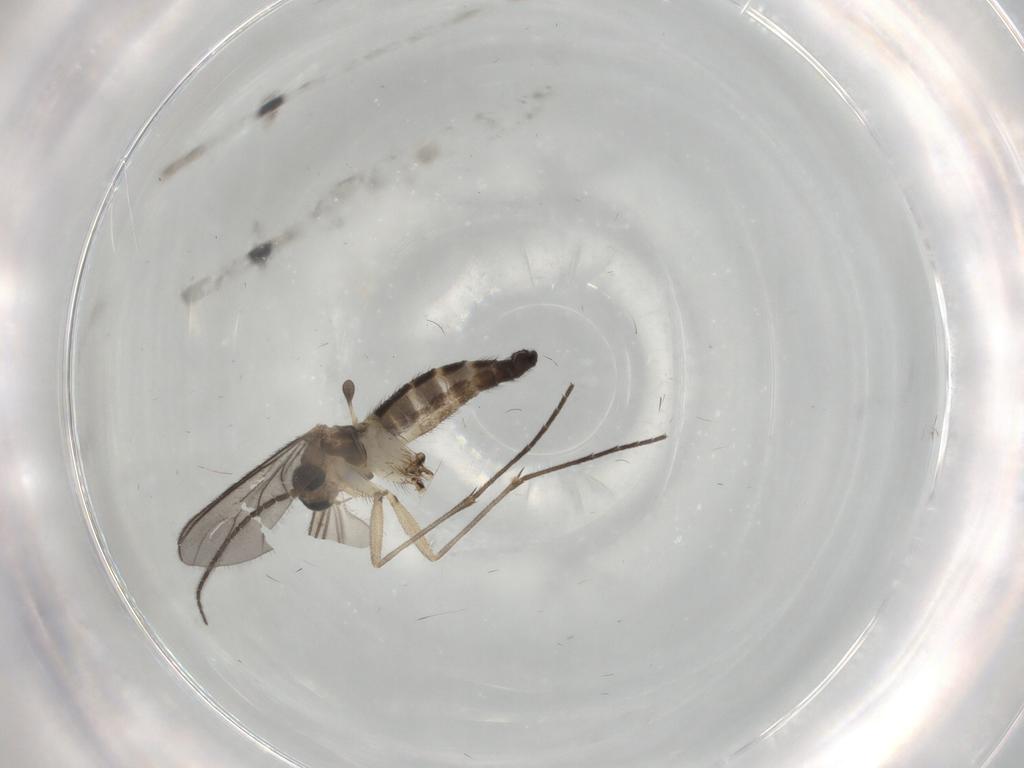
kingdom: Animalia
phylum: Arthropoda
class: Insecta
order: Diptera
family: Sciaridae
